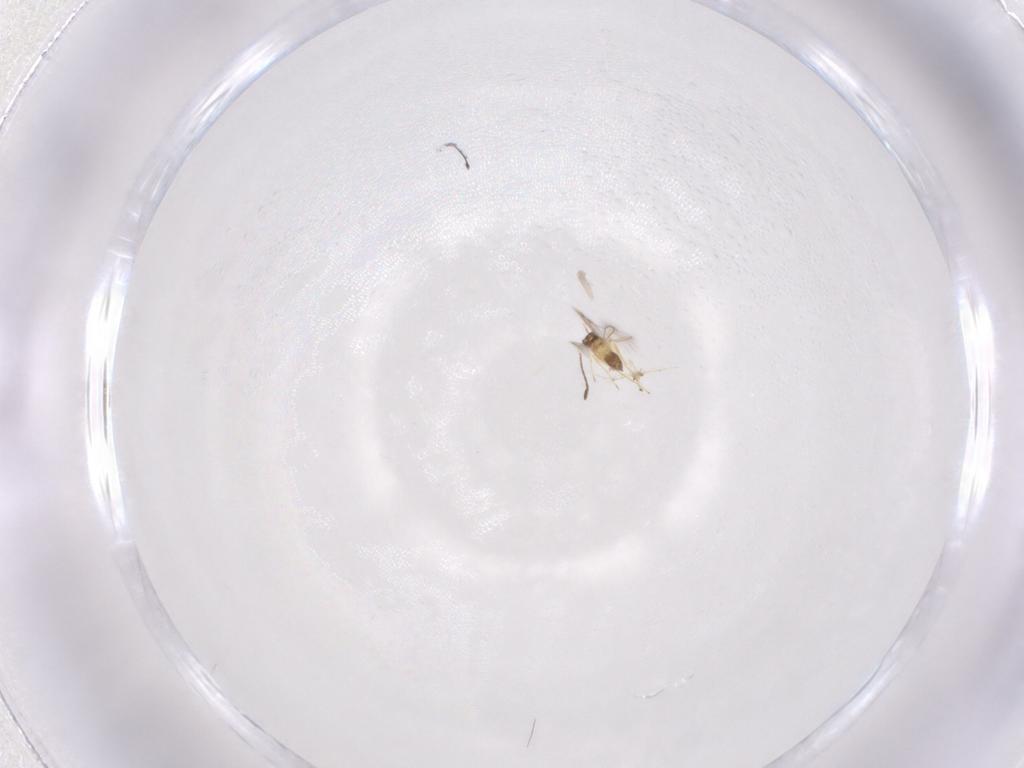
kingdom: Animalia
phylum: Arthropoda
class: Insecta
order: Hymenoptera
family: Mymaridae
